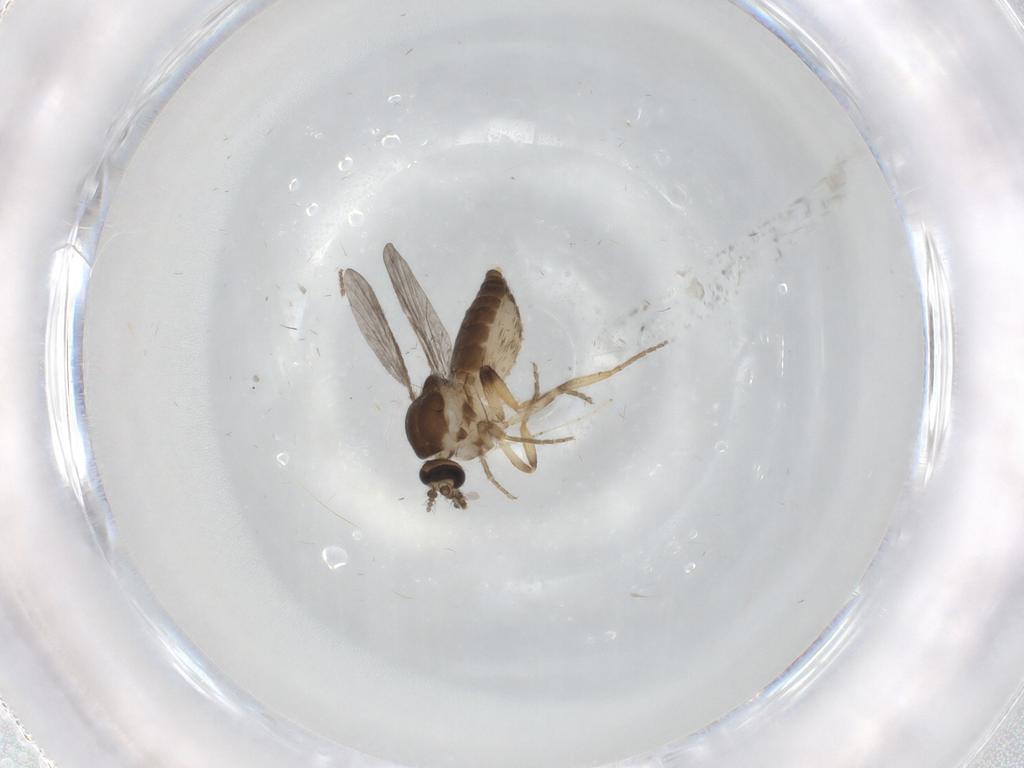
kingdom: Animalia
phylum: Arthropoda
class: Insecta
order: Diptera
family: Ceratopogonidae
